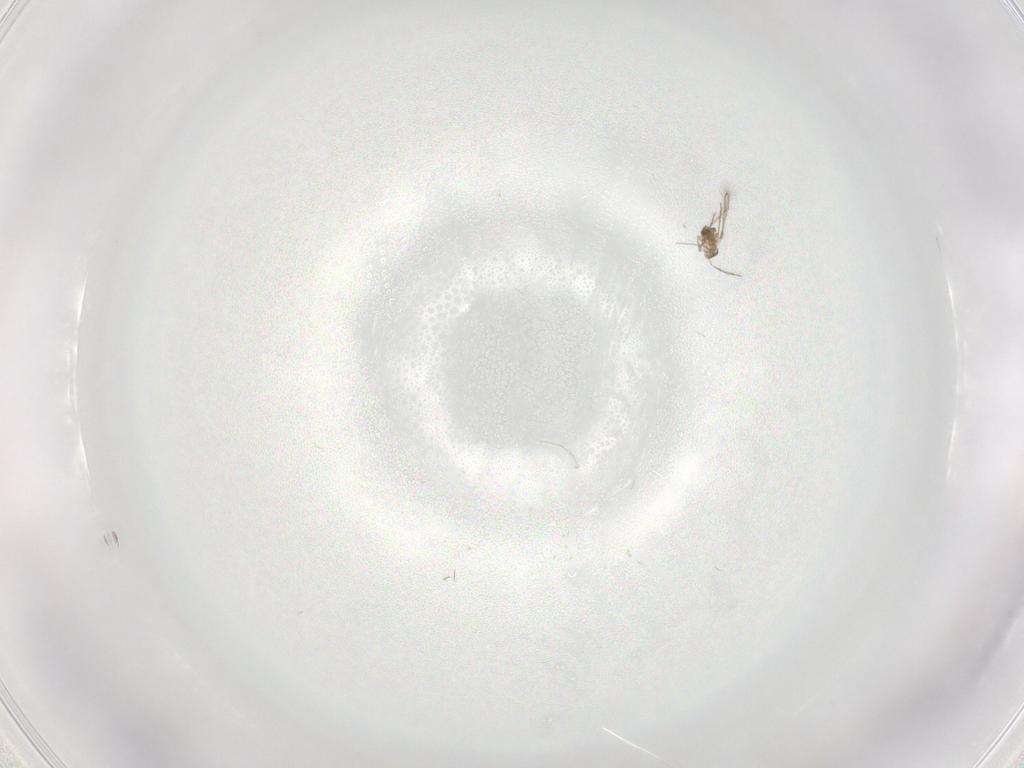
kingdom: Animalia
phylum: Arthropoda
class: Insecta
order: Hymenoptera
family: Mymaridae
